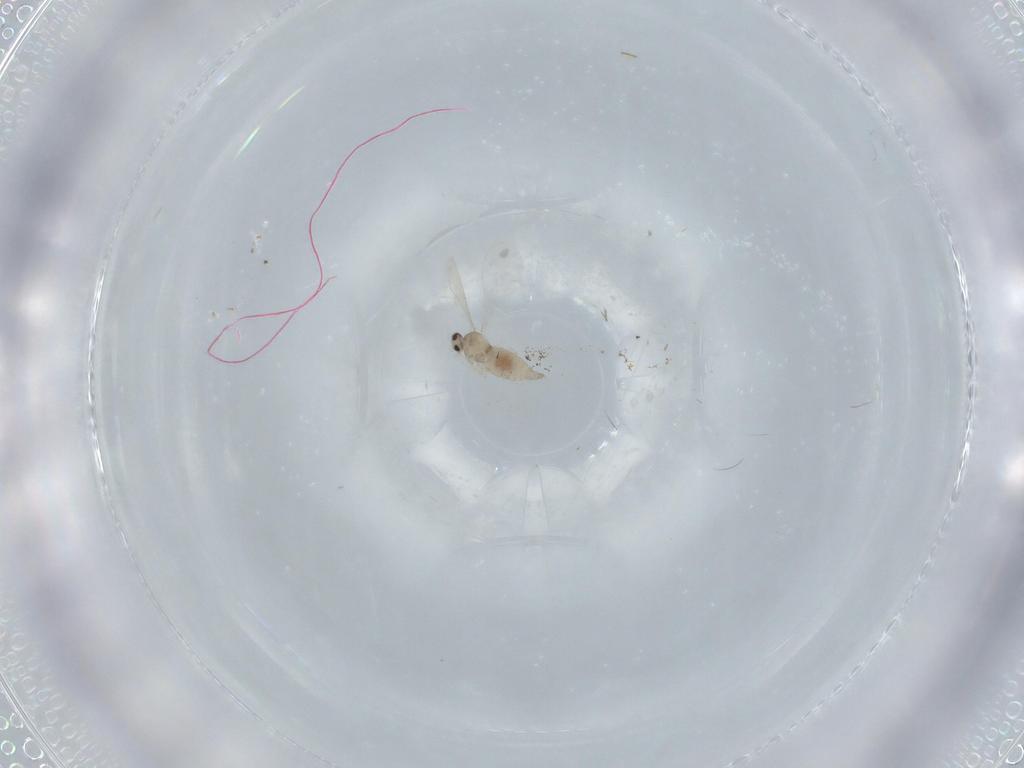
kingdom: Animalia
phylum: Arthropoda
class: Insecta
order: Diptera
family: Cecidomyiidae
